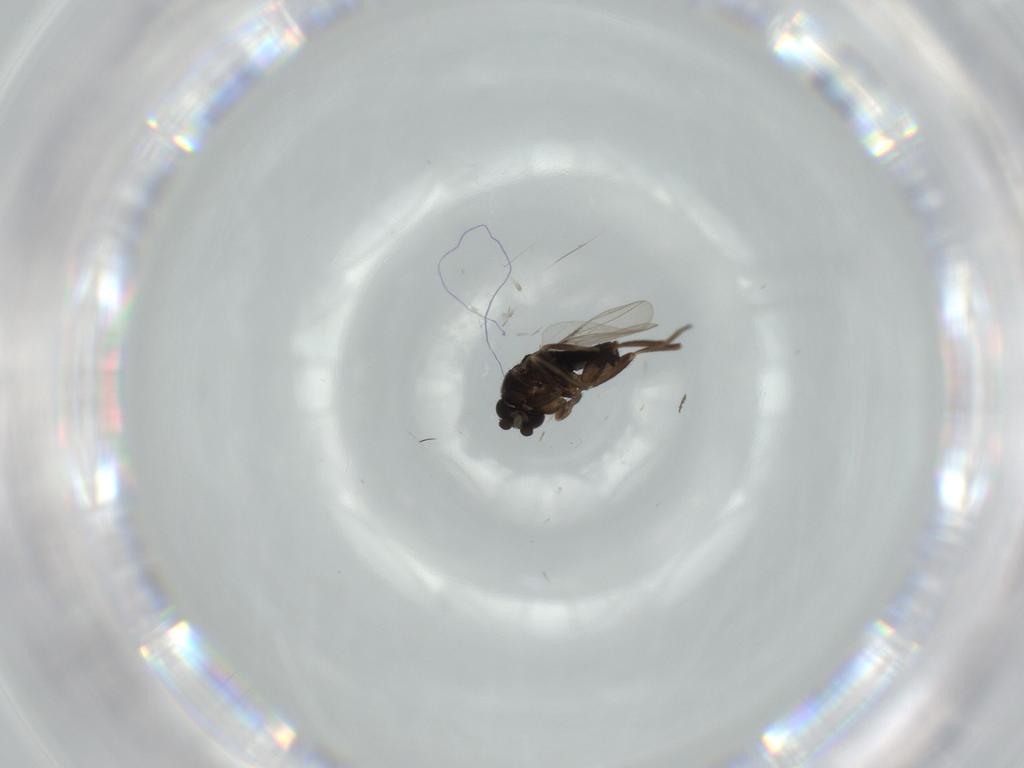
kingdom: Animalia
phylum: Arthropoda
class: Insecta
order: Diptera
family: Drosophilidae
